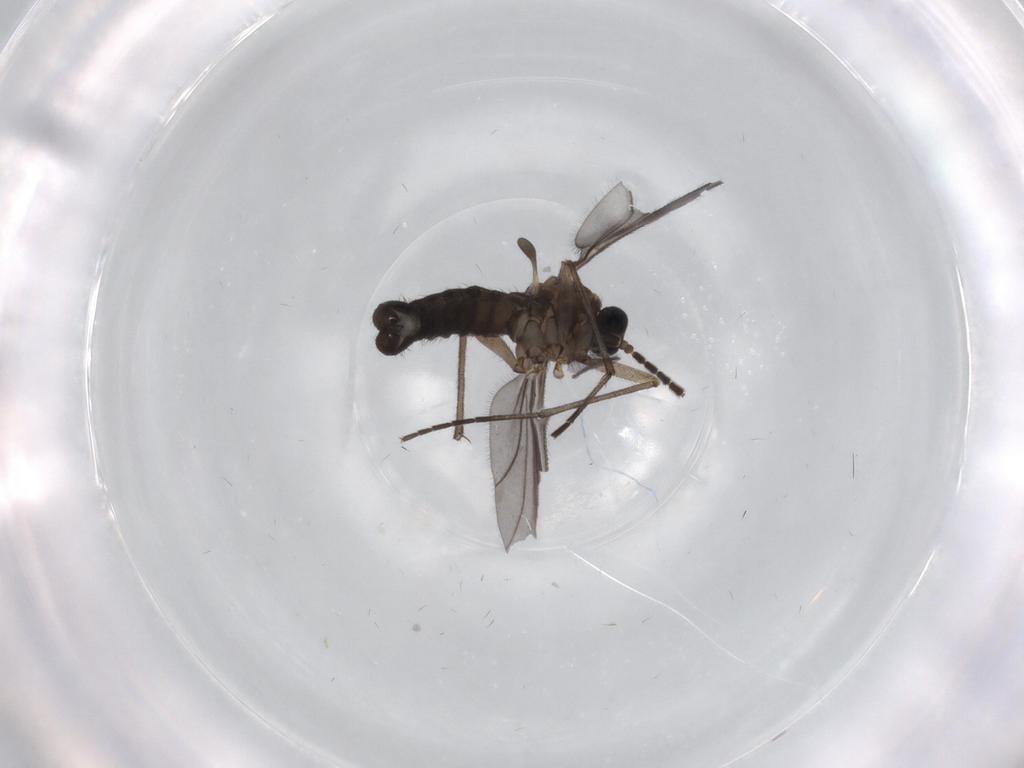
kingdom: Animalia
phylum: Arthropoda
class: Insecta
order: Diptera
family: Sciaridae
